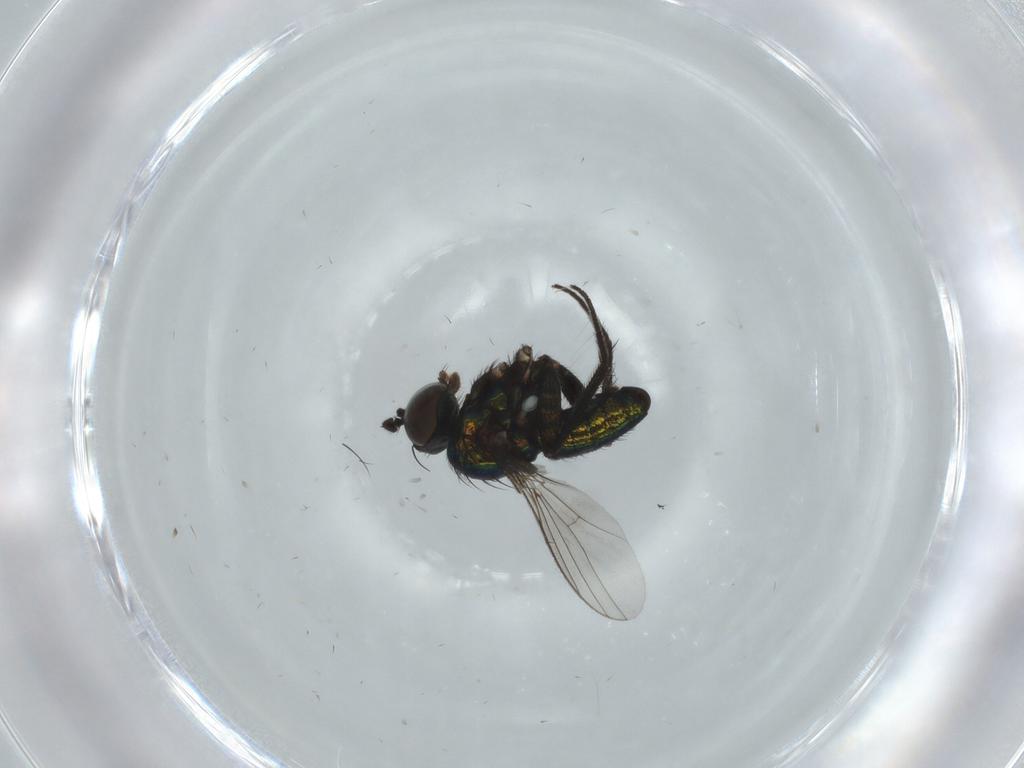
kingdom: Animalia
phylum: Arthropoda
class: Insecta
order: Diptera
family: Dolichopodidae
